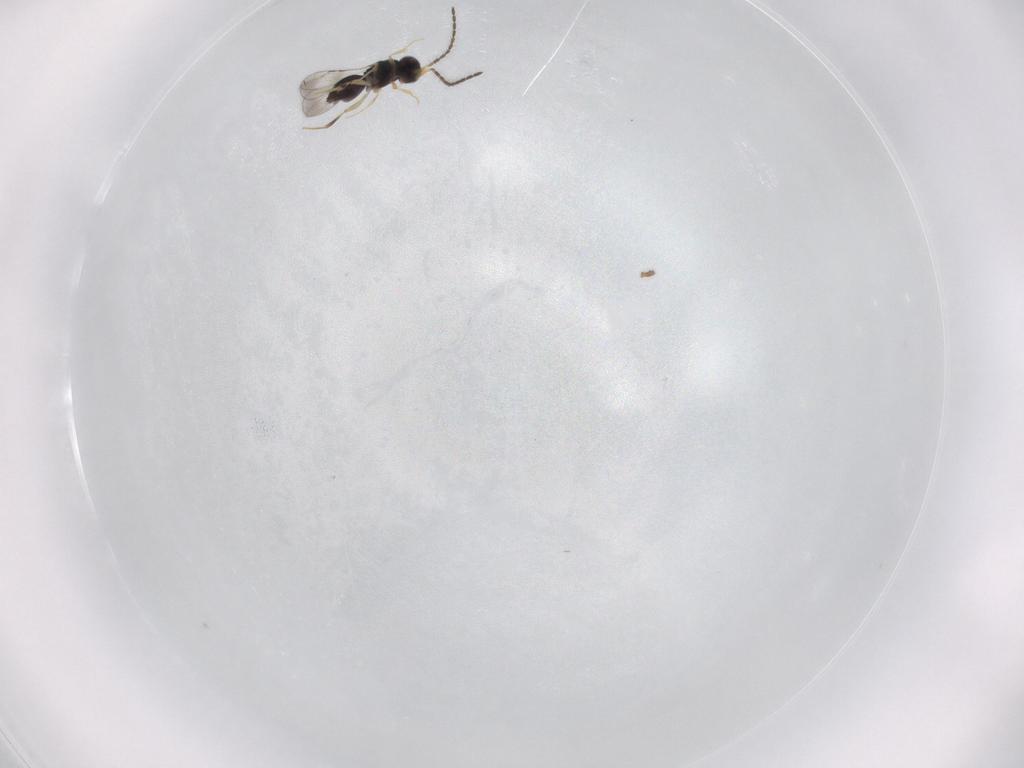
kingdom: Animalia
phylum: Arthropoda
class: Insecta
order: Hymenoptera
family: Ceraphronidae
